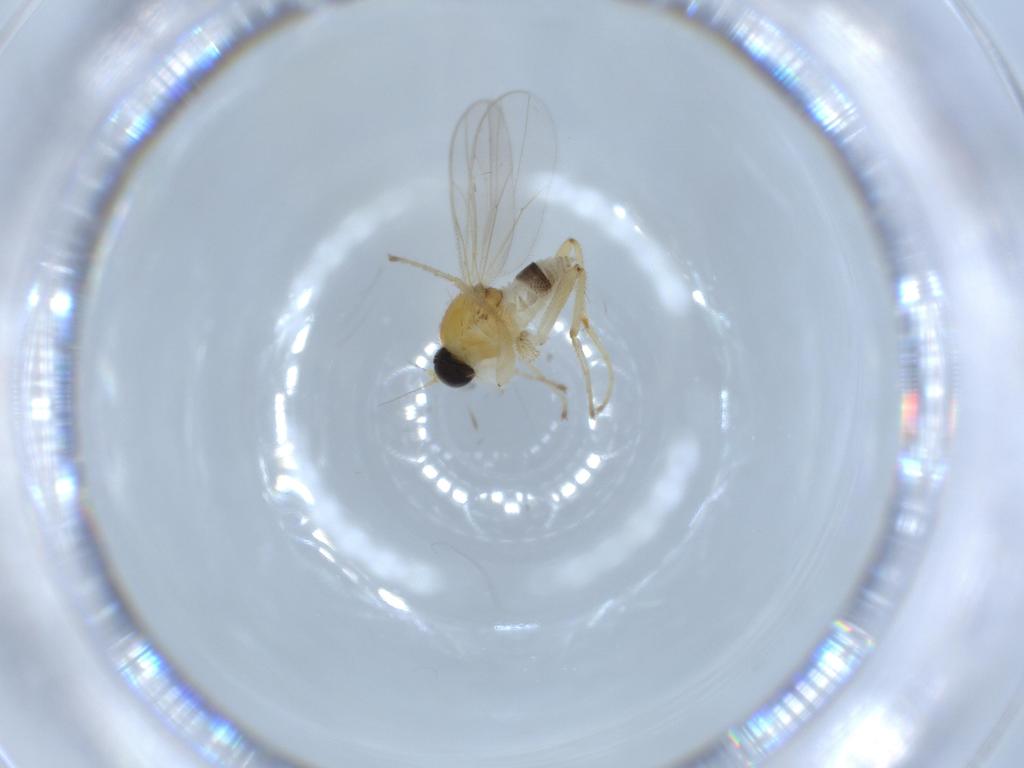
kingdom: Animalia
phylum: Arthropoda
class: Insecta
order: Diptera
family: Hybotidae
